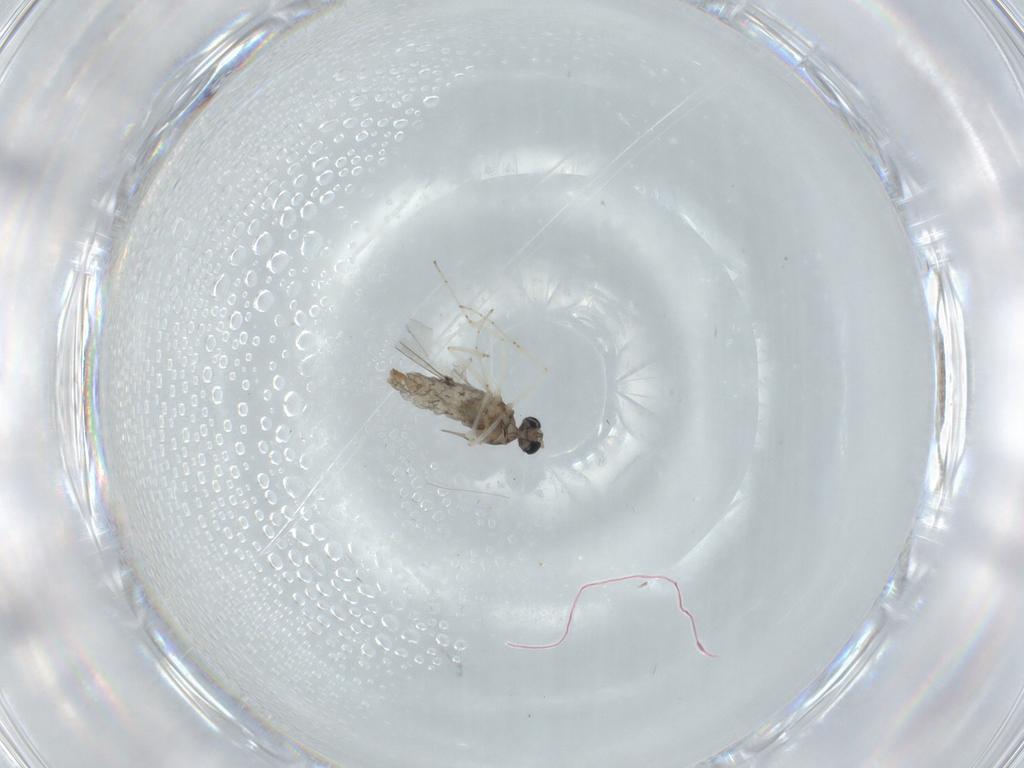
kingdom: Animalia
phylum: Arthropoda
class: Insecta
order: Diptera
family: Cecidomyiidae
